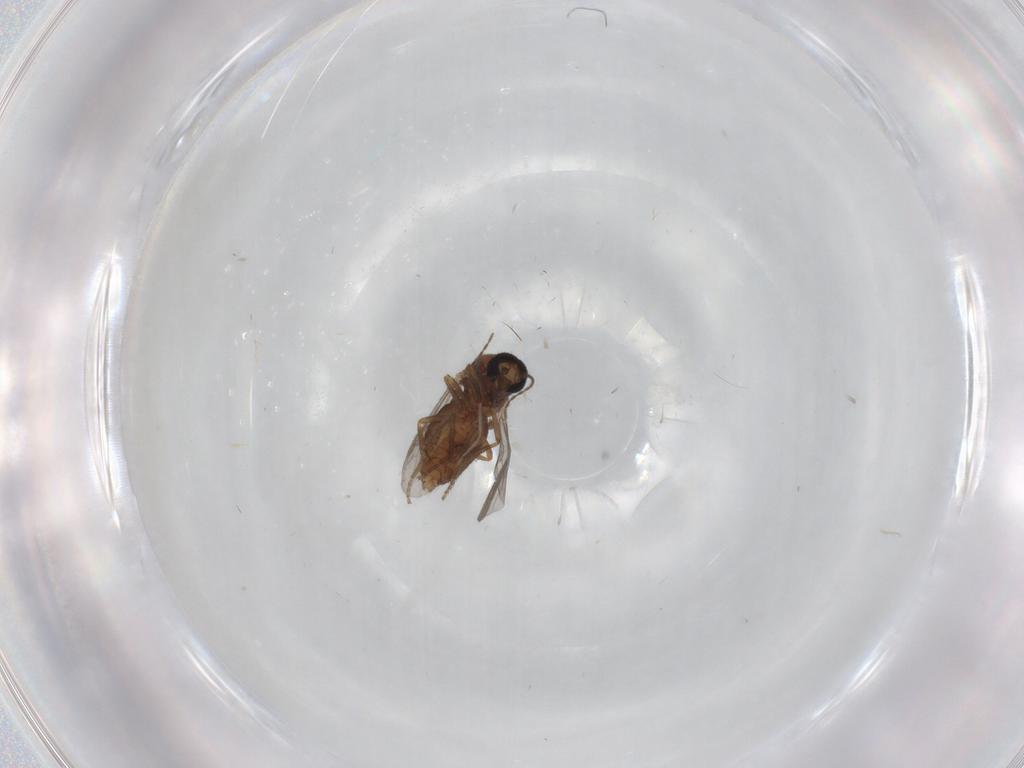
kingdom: Animalia
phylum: Arthropoda
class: Insecta
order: Diptera
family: Ceratopogonidae
